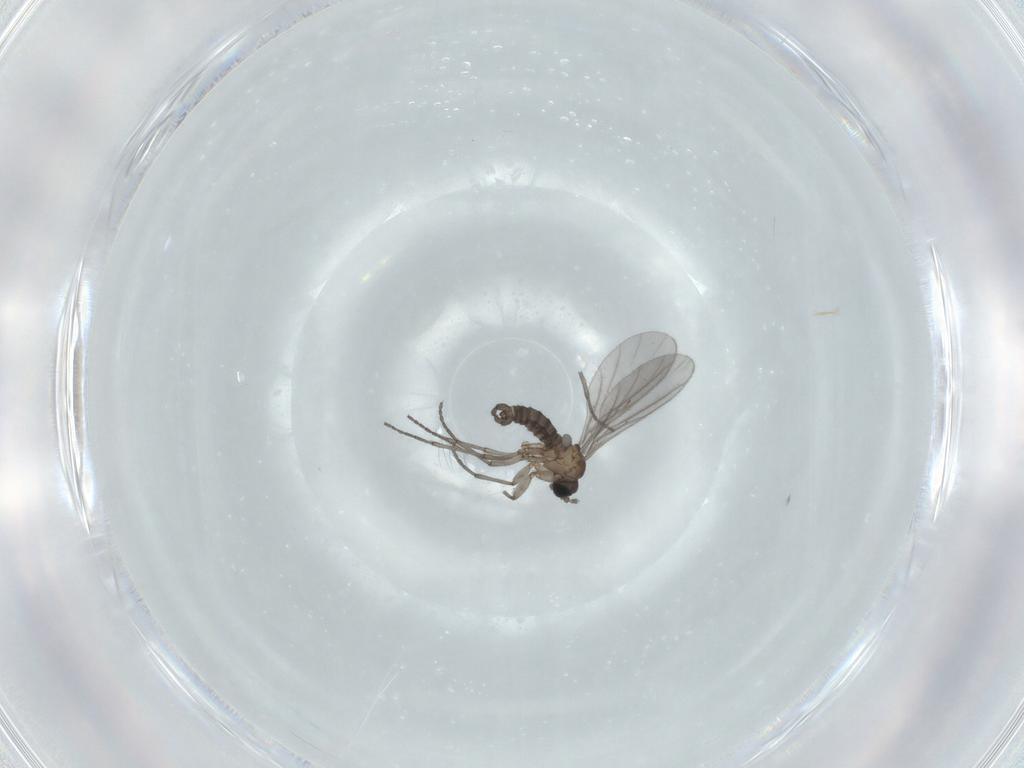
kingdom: Animalia
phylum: Arthropoda
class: Insecta
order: Diptera
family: Sciaridae
